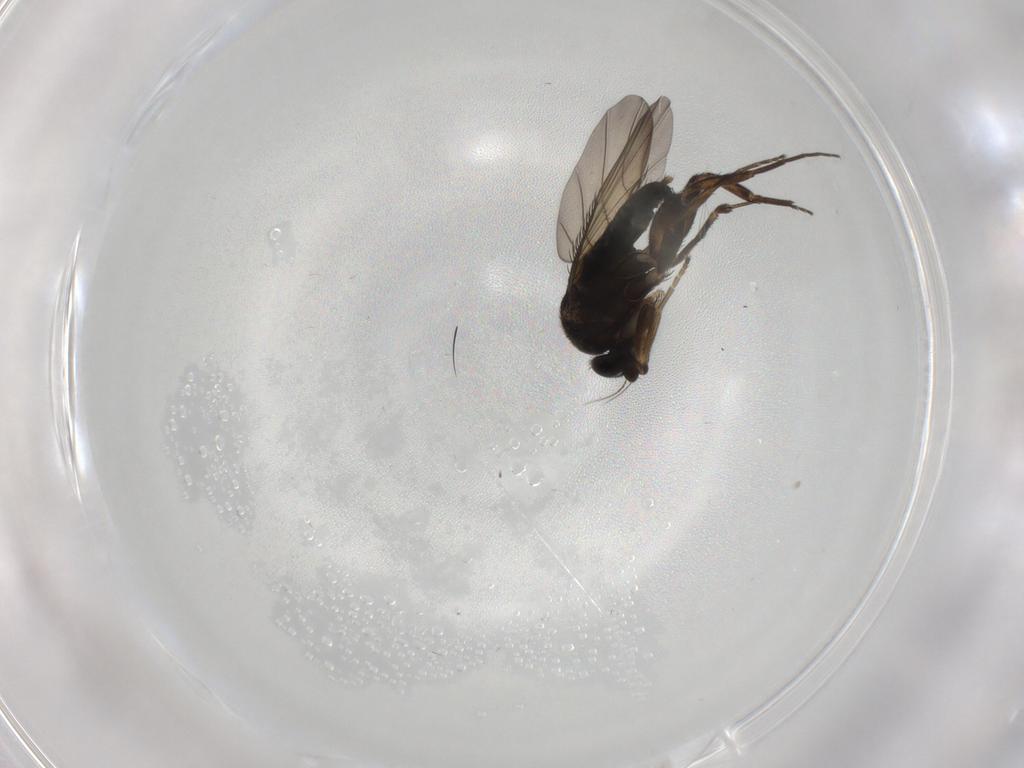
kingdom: Animalia
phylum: Arthropoda
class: Insecta
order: Diptera
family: Phoridae
